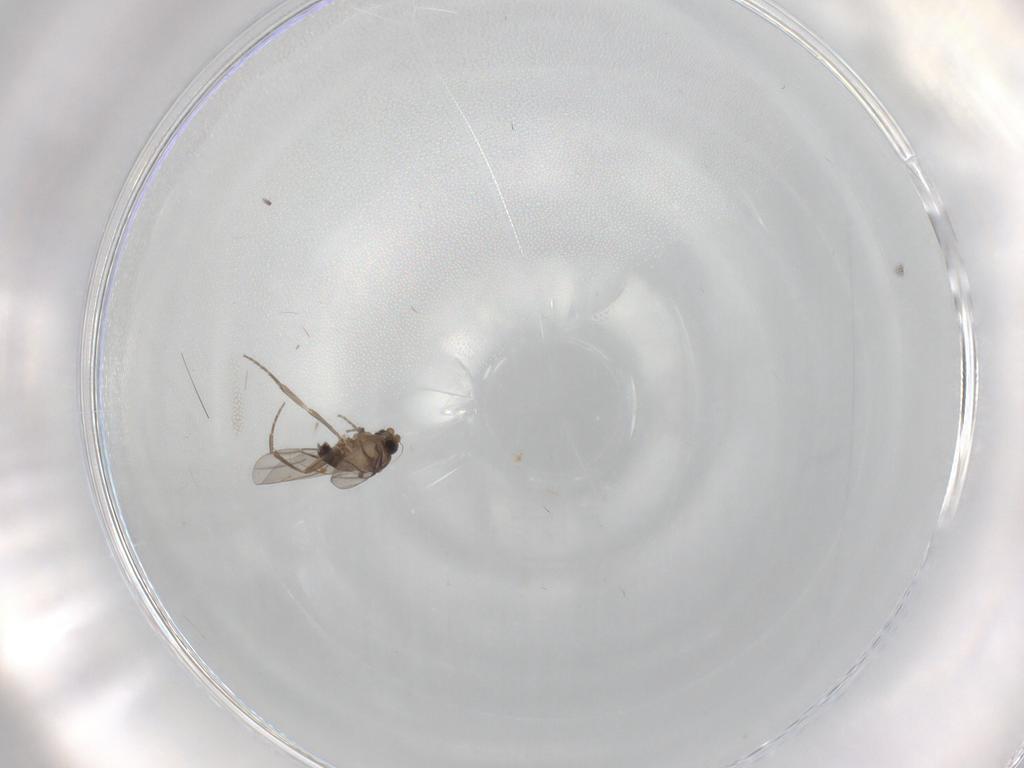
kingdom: Animalia
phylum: Arthropoda
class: Insecta
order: Diptera
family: Phoridae
